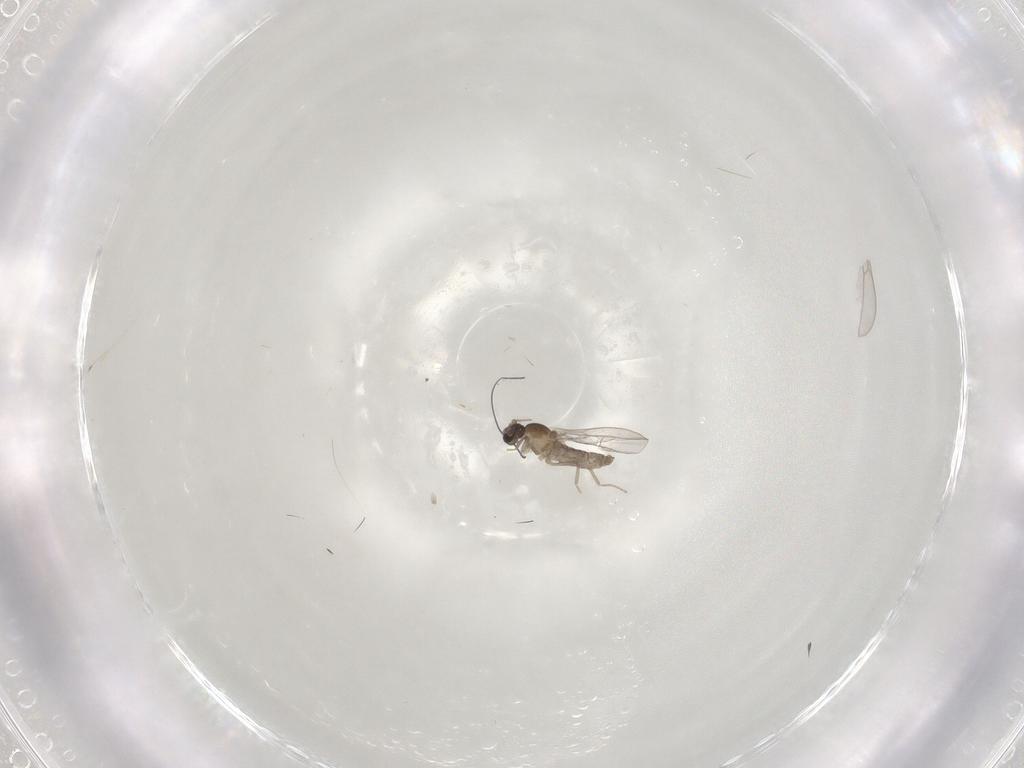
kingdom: Animalia
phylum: Arthropoda
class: Insecta
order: Diptera
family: Cecidomyiidae
